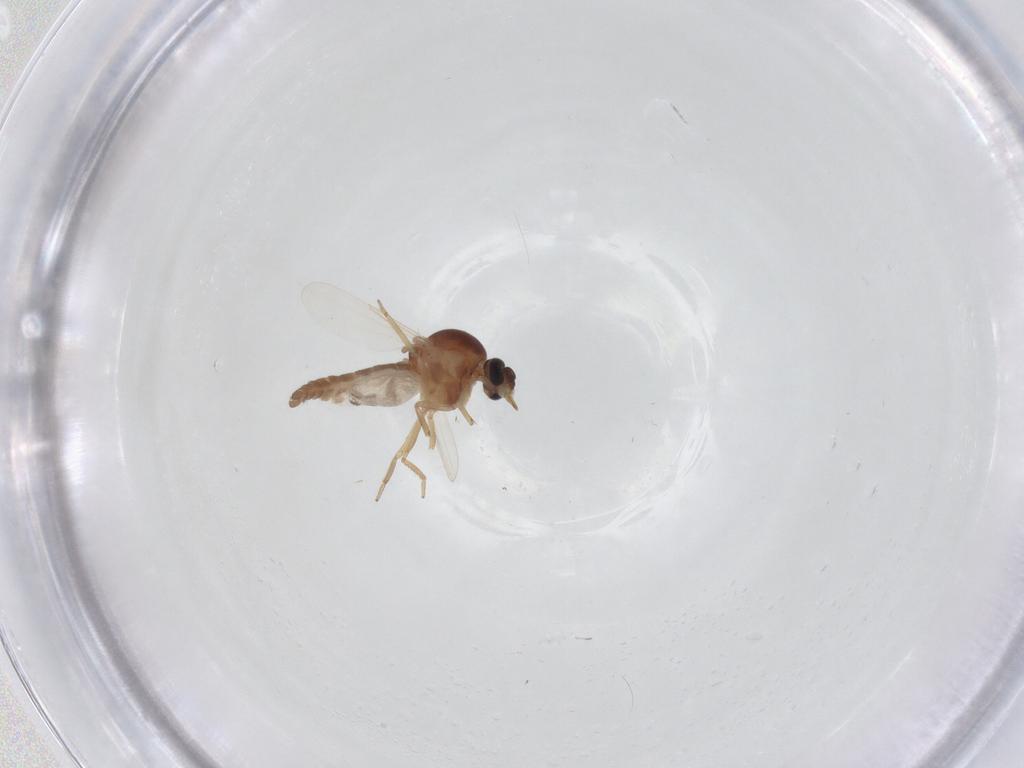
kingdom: Animalia
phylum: Arthropoda
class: Insecta
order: Diptera
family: Ceratopogonidae
